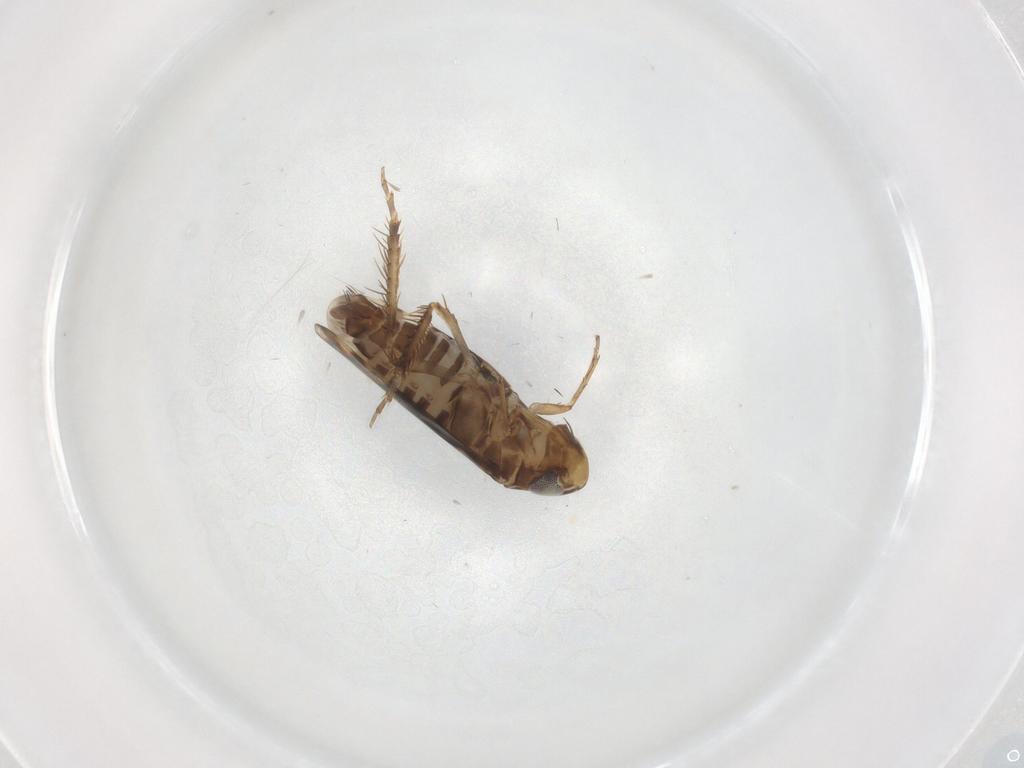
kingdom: Animalia
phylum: Arthropoda
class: Insecta
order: Hemiptera
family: Cicadellidae
